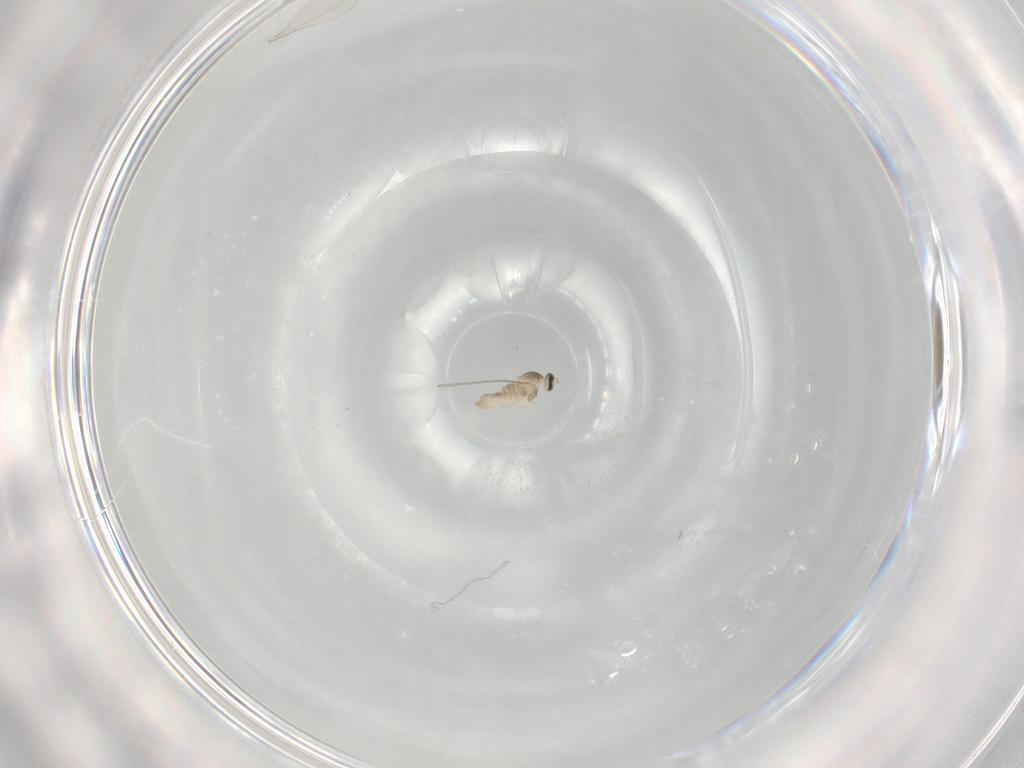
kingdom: Animalia
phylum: Arthropoda
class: Insecta
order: Diptera
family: Cecidomyiidae
